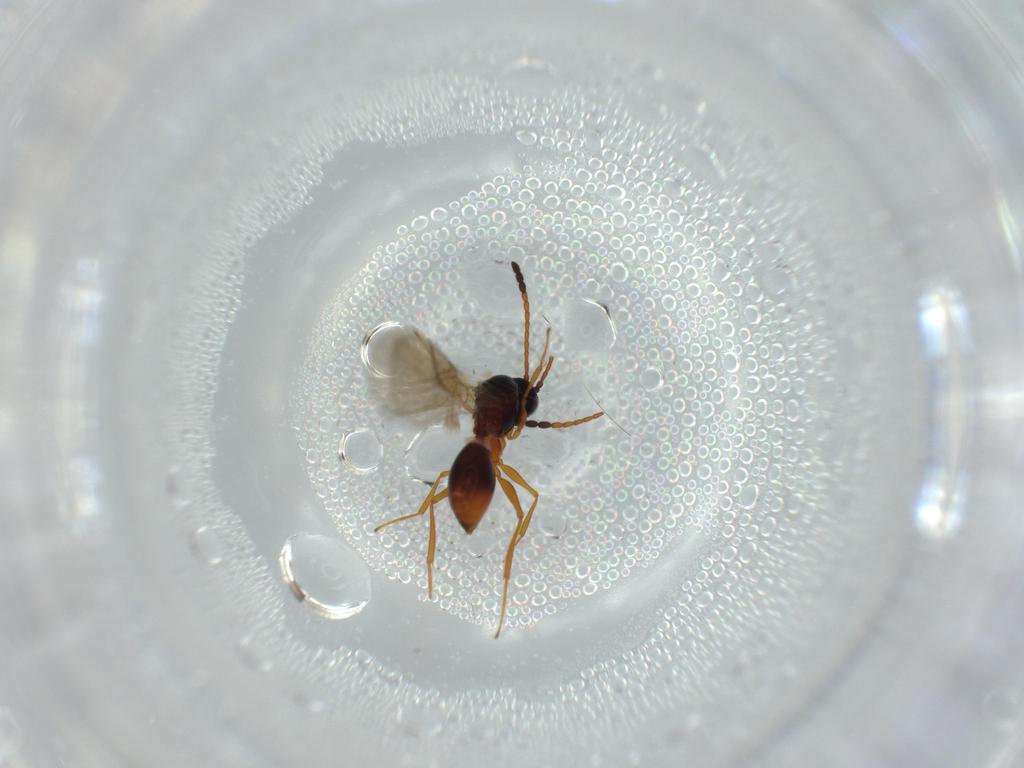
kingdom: Animalia
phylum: Arthropoda
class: Insecta
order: Hymenoptera
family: Figitidae
